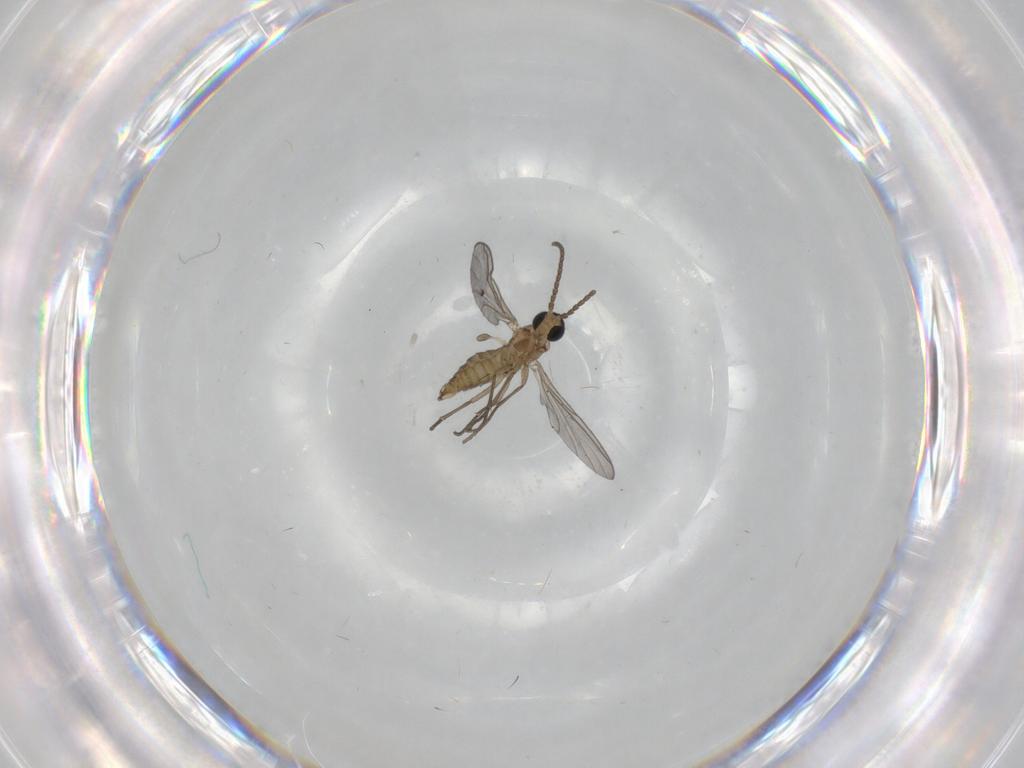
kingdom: Animalia
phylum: Arthropoda
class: Insecta
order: Diptera
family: Sciaridae
